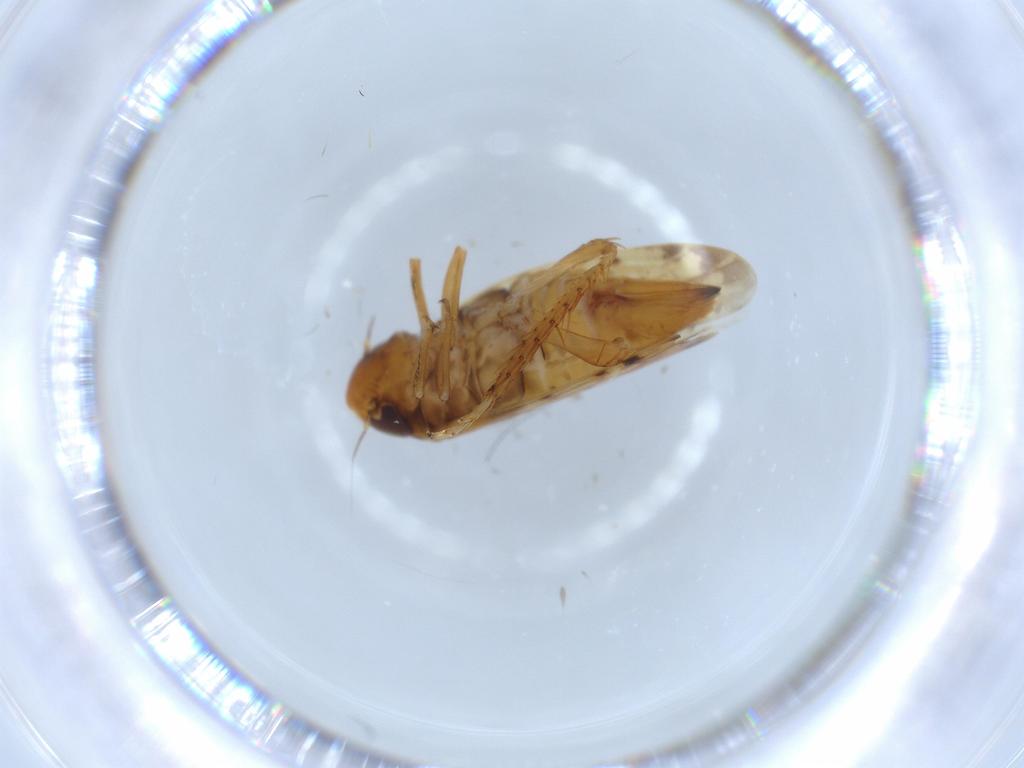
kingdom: Animalia
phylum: Arthropoda
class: Insecta
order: Hemiptera
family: Cicadellidae
